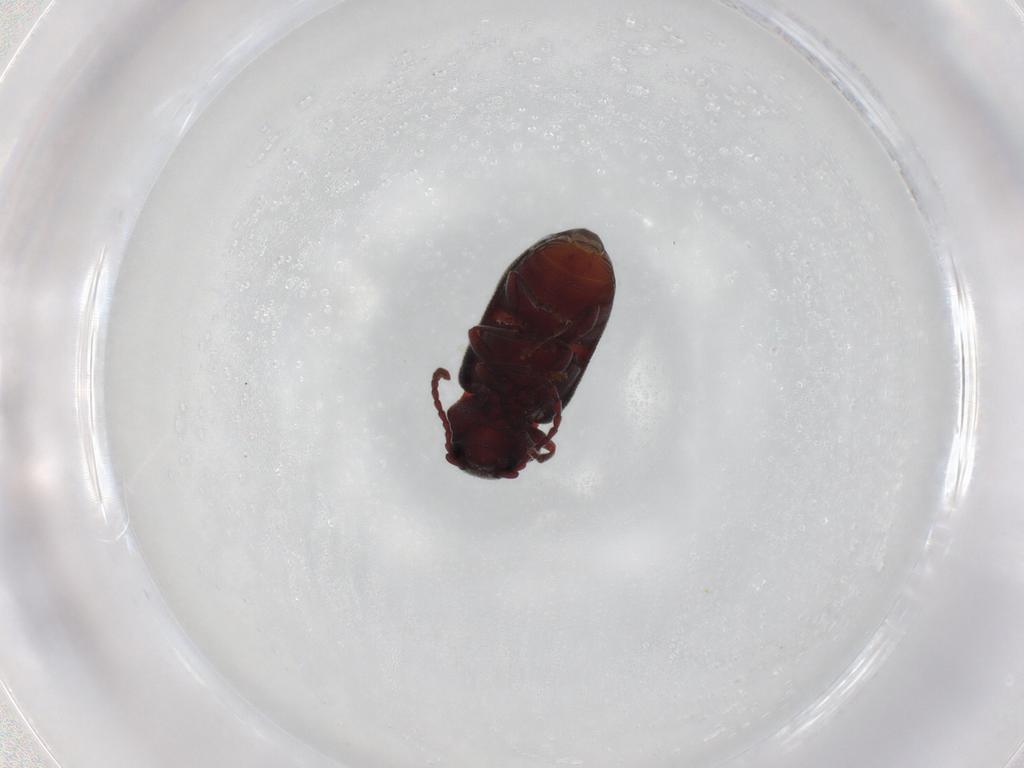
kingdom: Animalia
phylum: Arthropoda
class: Insecta
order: Coleoptera
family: Ptinidae
